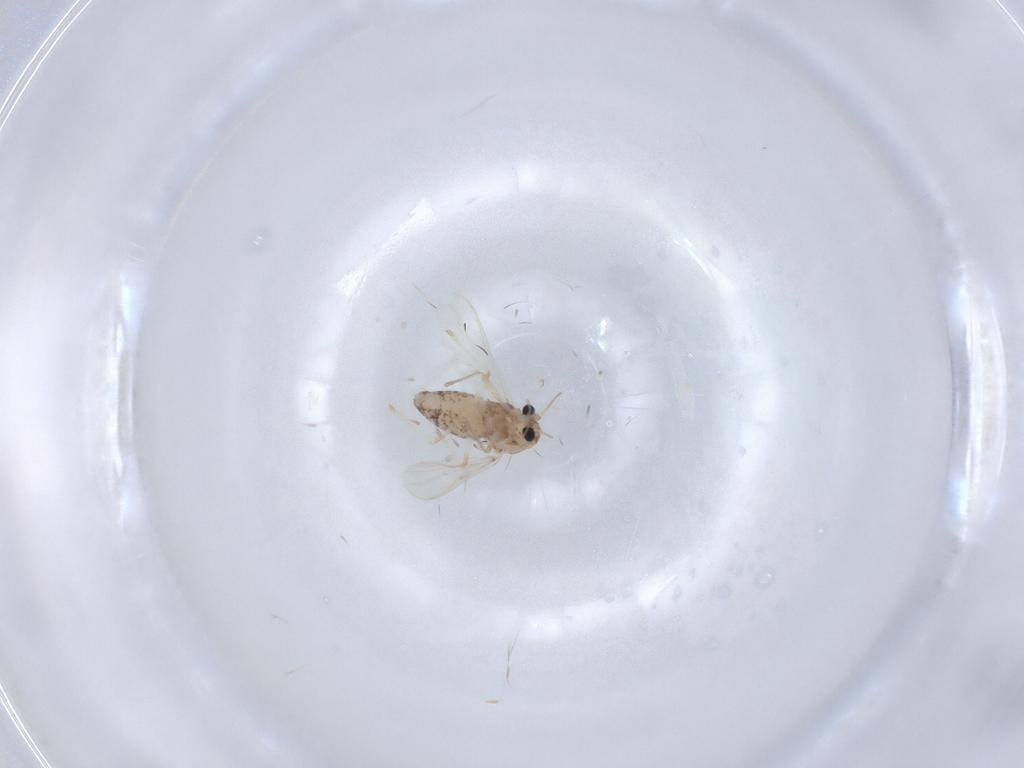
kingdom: Animalia
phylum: Arthropoda
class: Insecta
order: Diptera
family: Chironomidae
